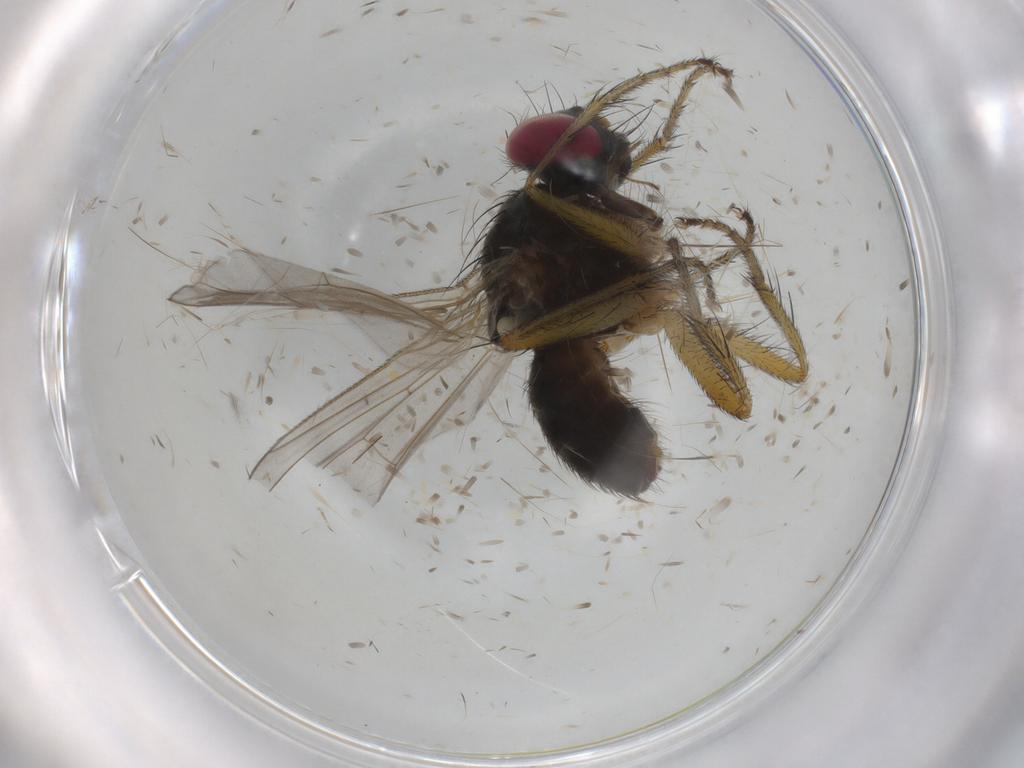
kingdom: Animalia
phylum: Arthropoda
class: Insecta
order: Diptera
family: Muscidae
